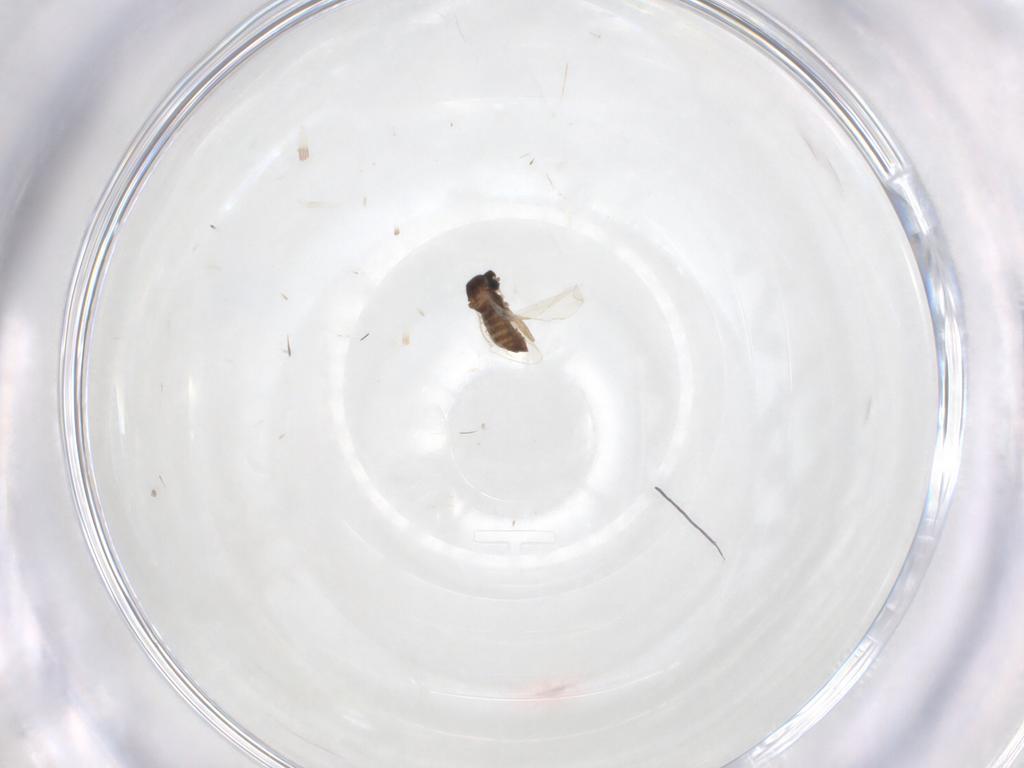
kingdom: Animalia
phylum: Arthropoda
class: Insecta
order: Diptera
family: Cecidomyiidae
